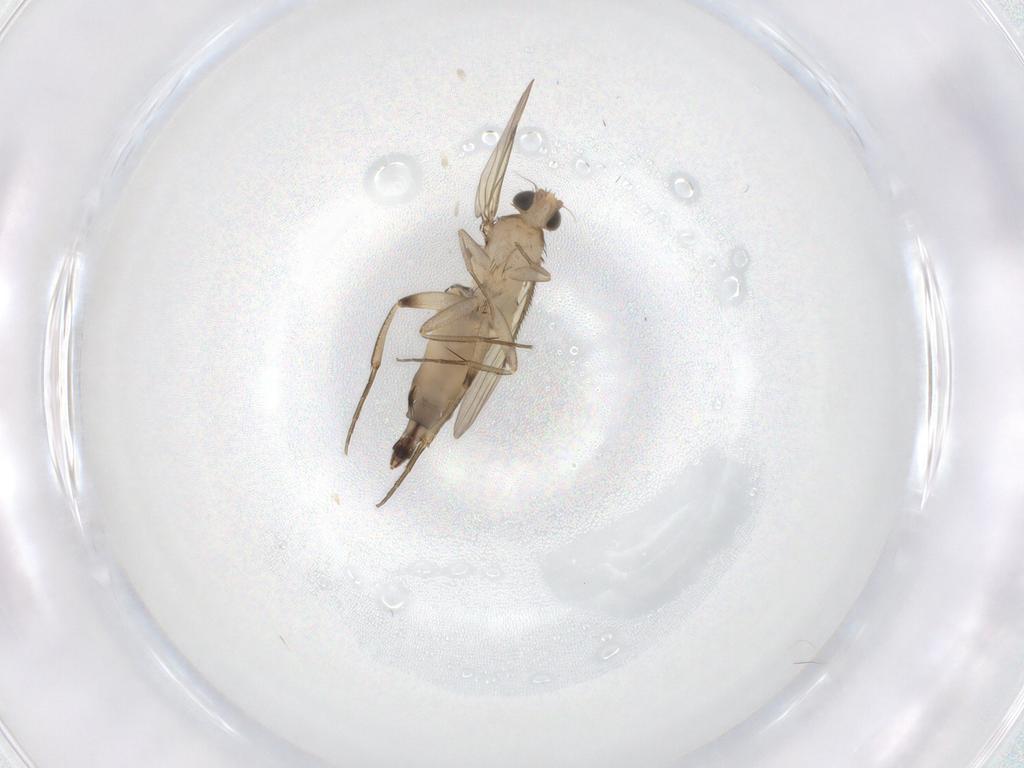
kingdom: Animalia
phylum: Arthropoda
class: Insecta
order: Diptera
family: Phoridae
